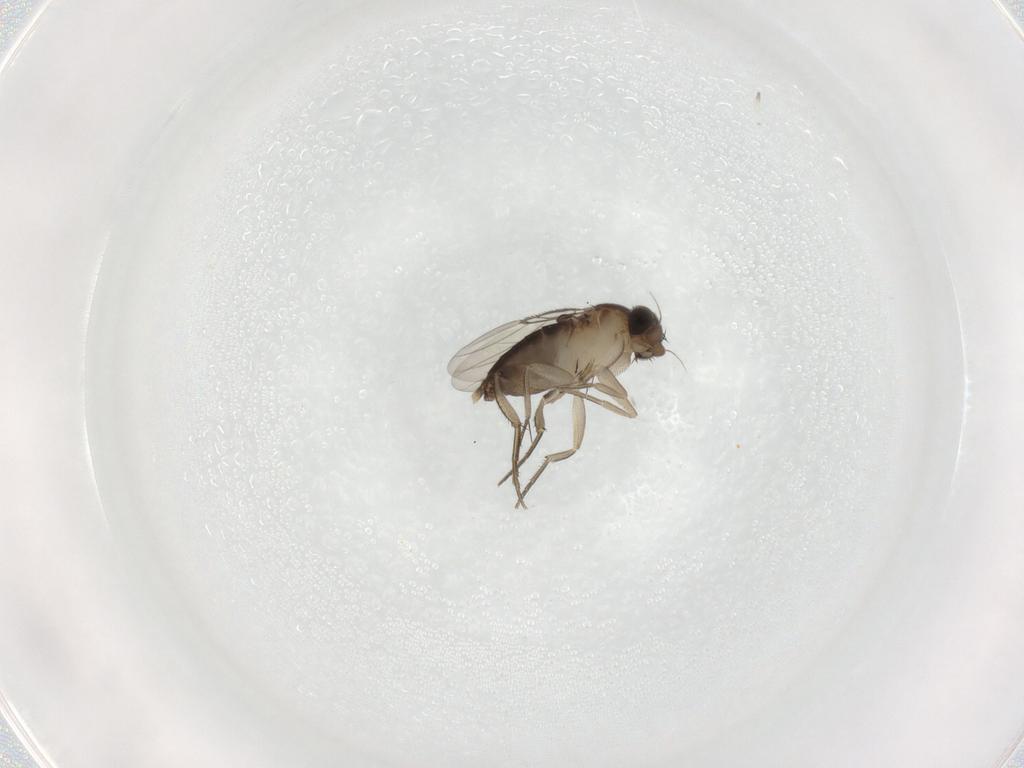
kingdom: Animalia
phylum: Arthropoda
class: Insecta
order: Diptera
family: Phoridae
